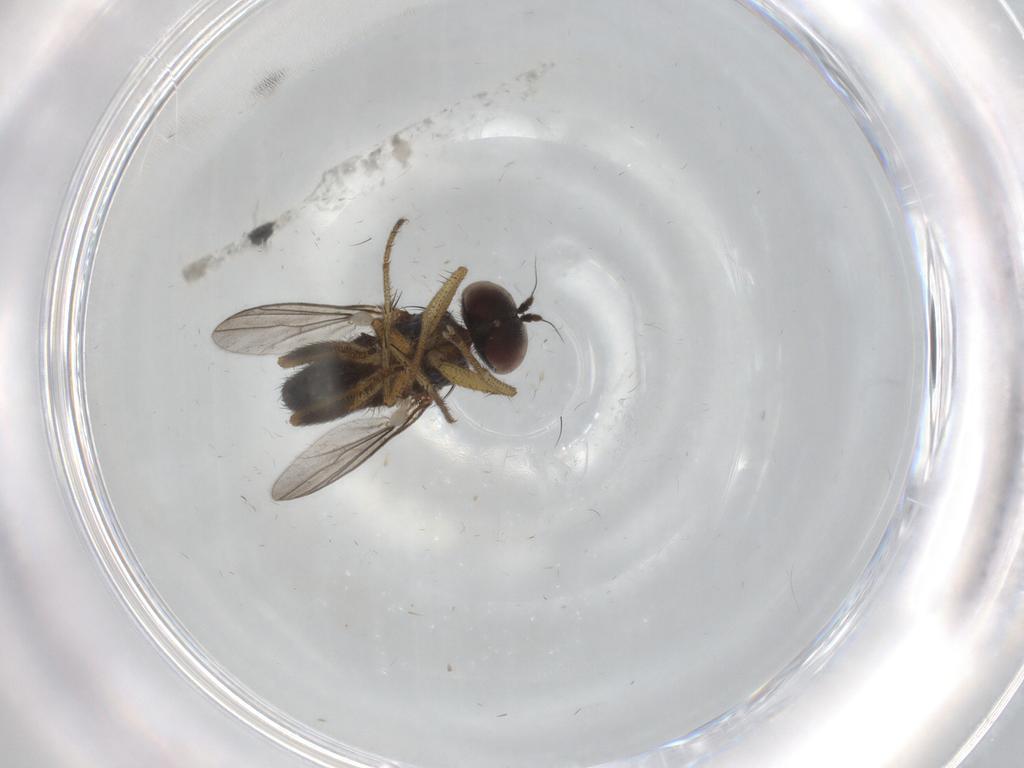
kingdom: Animalia
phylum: Arthropoda
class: Insecta
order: Diptera
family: Dolichopodidae
